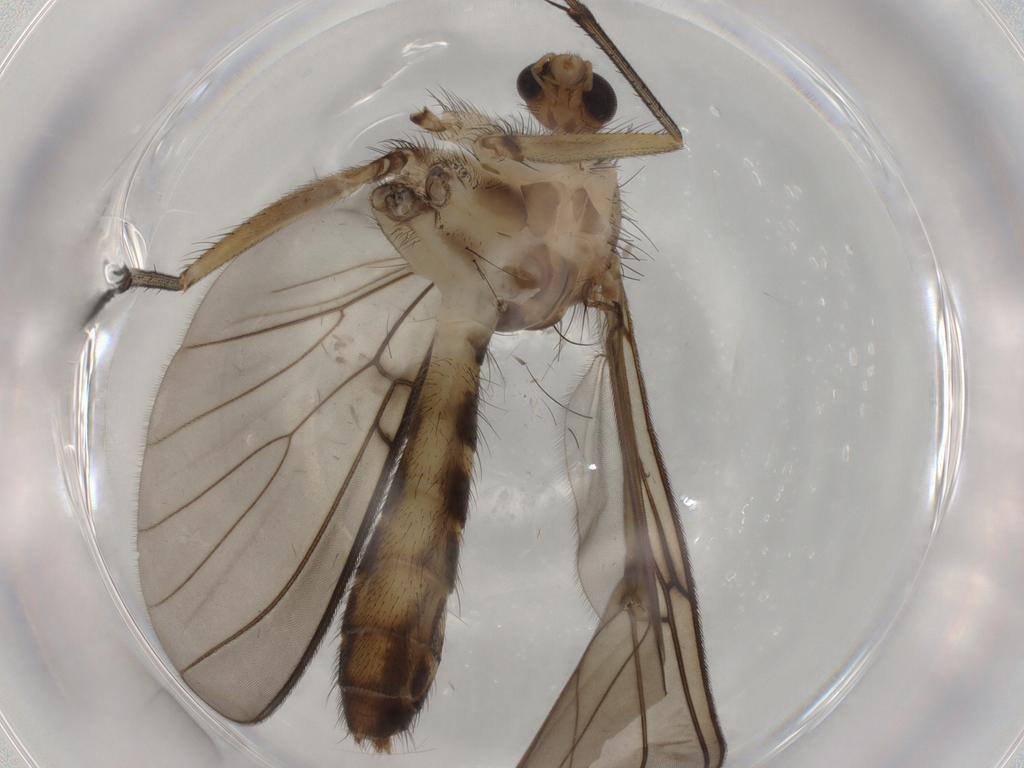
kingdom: Animalia
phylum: Arthropoda
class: Insecta
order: Diptera
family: Mycetophilidae
